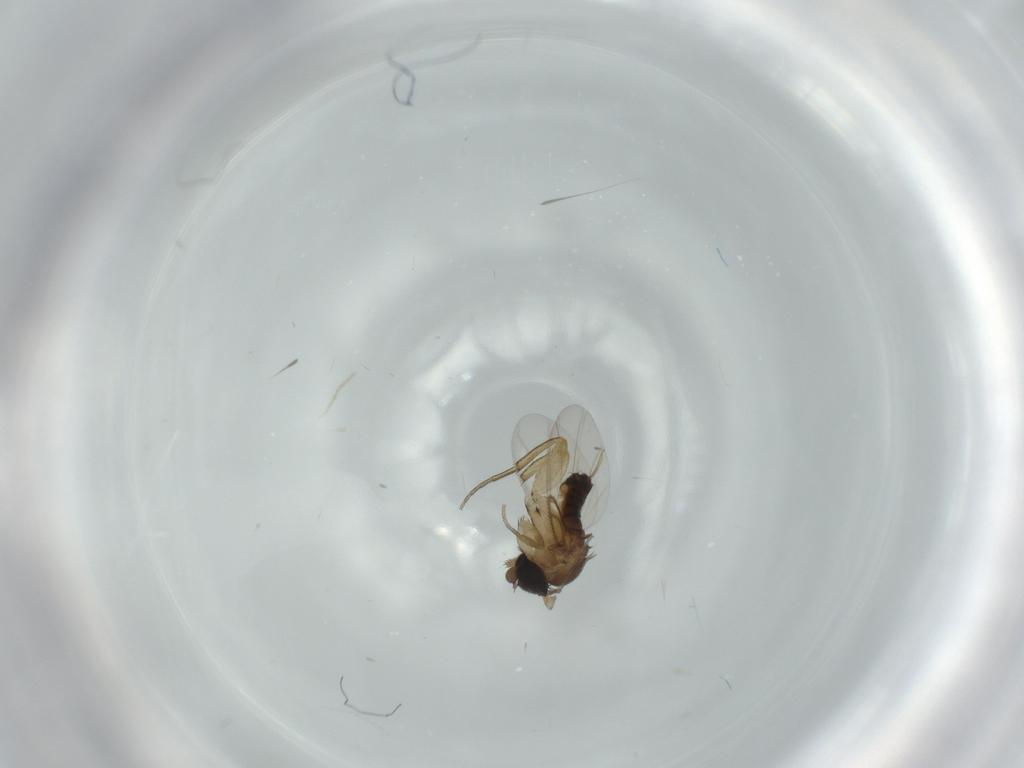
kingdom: Animalia
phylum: Arthropoda
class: Insecta
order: Diptera
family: Phoridae
